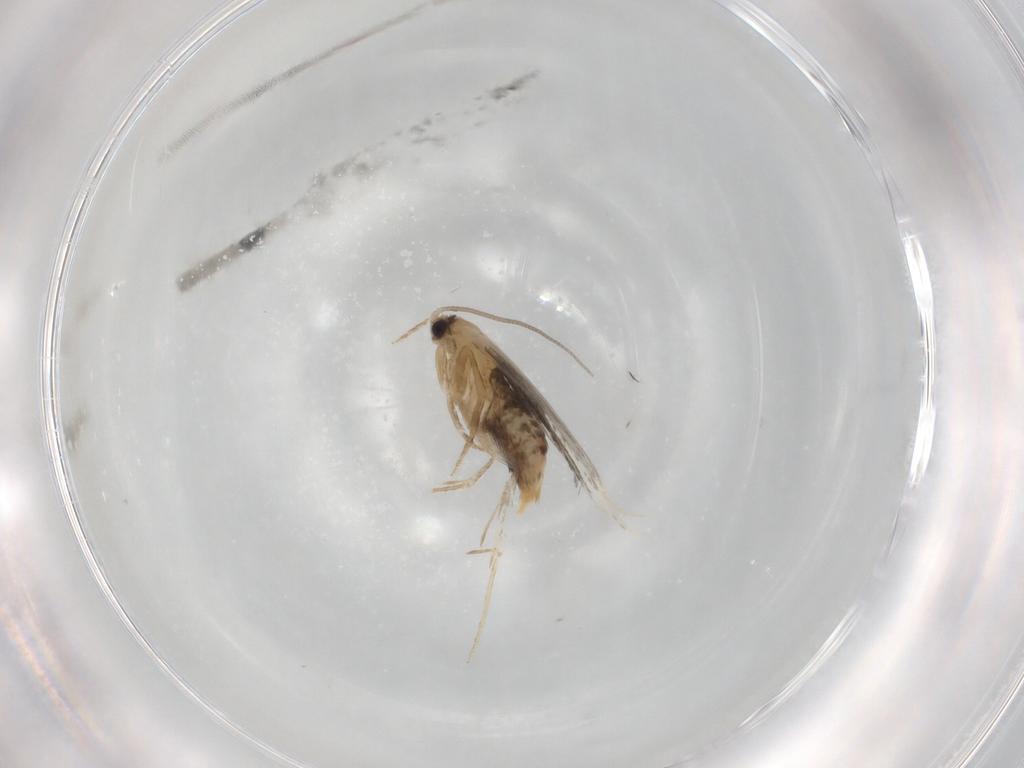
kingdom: Animalia
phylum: Arthropoda
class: Insecta
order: Lepidoptera
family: Tineidae
